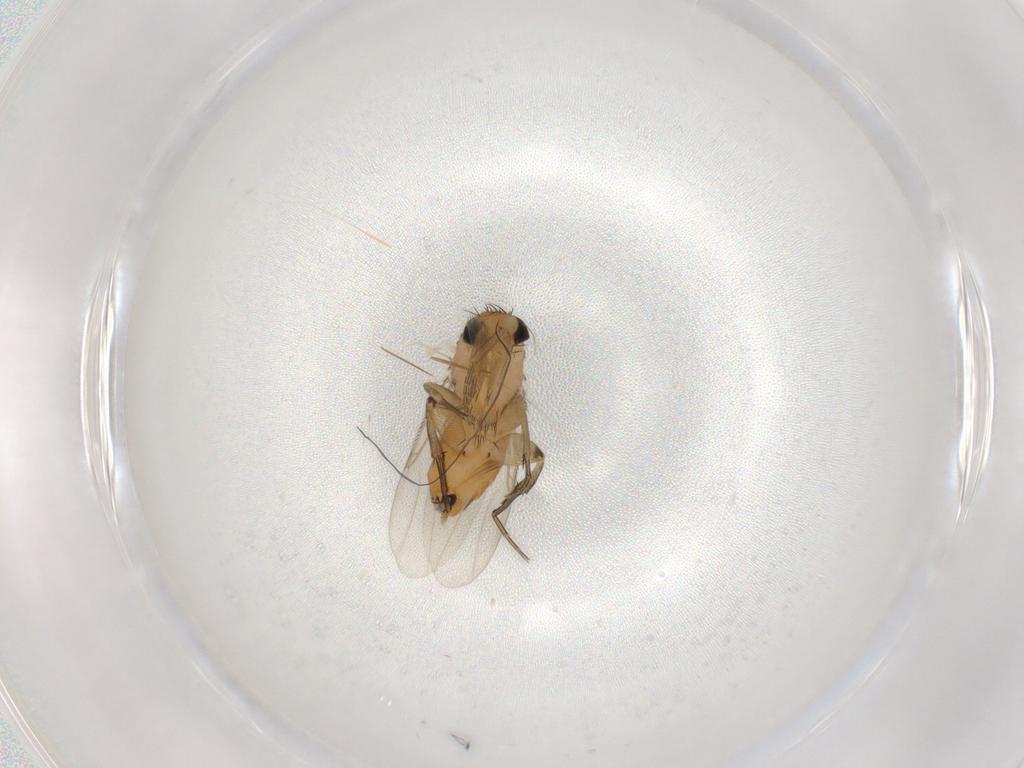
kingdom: Animalia
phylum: Arthropoda
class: Insecta
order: Diptera
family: Phoridae
